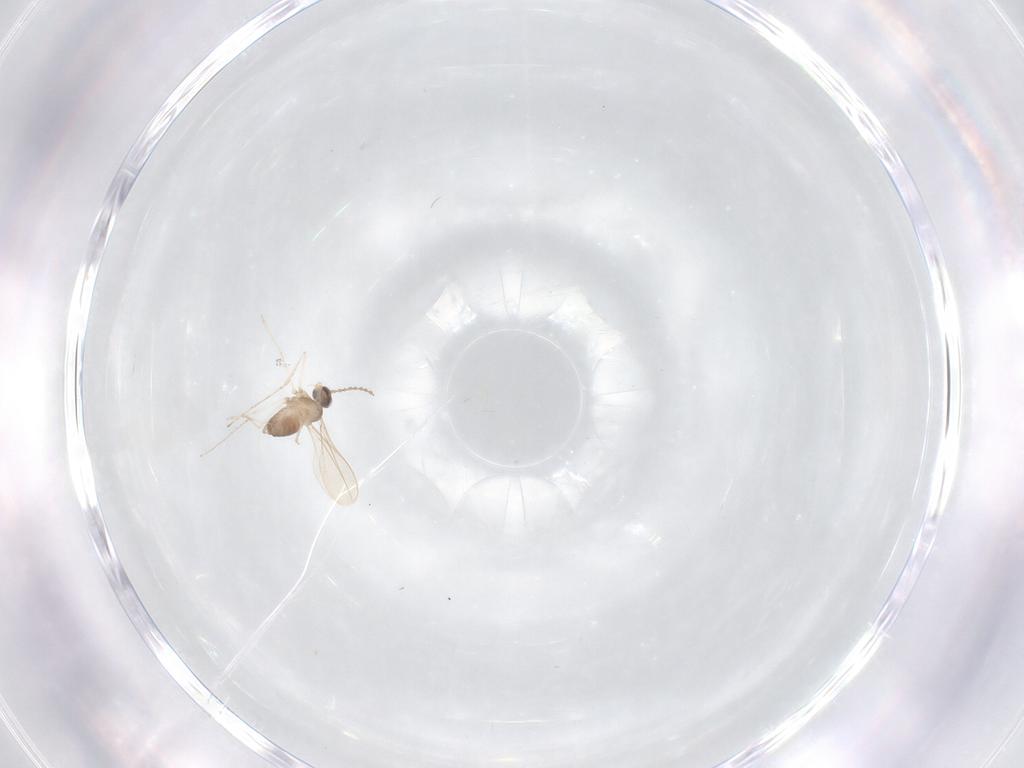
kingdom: Animalia
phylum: Arthropoda
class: Insecta
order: Diptera
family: Cecidomyiidae
